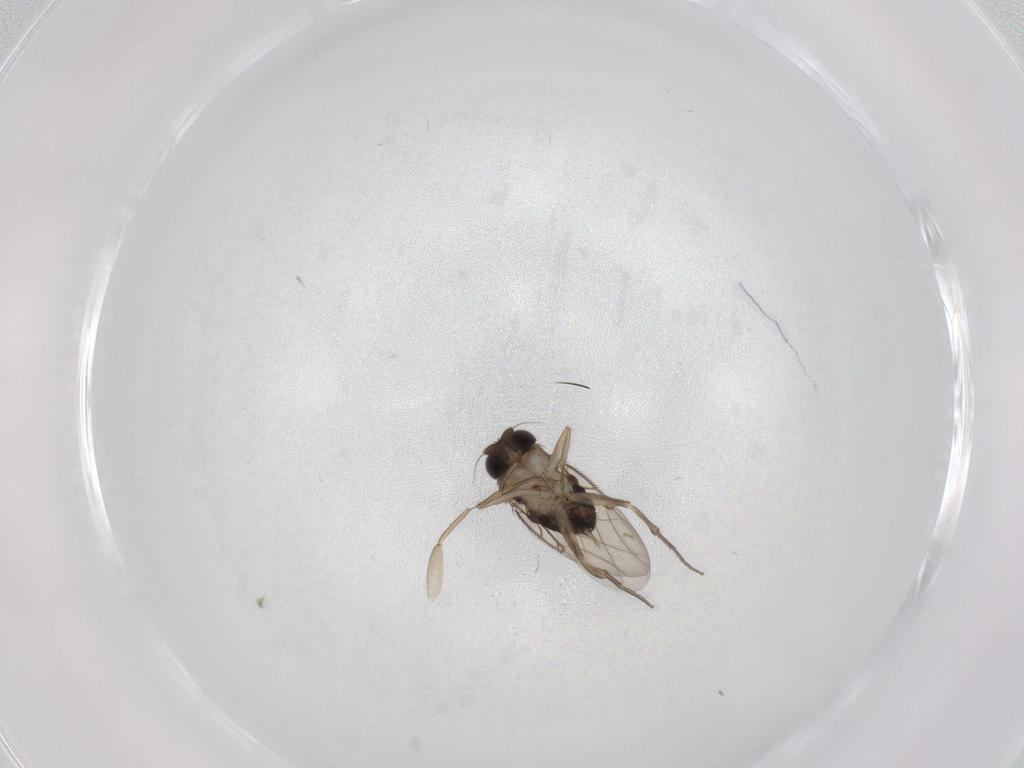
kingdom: Animalia
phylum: Arthropoda
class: Insecta
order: Diptera
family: Phoridae
